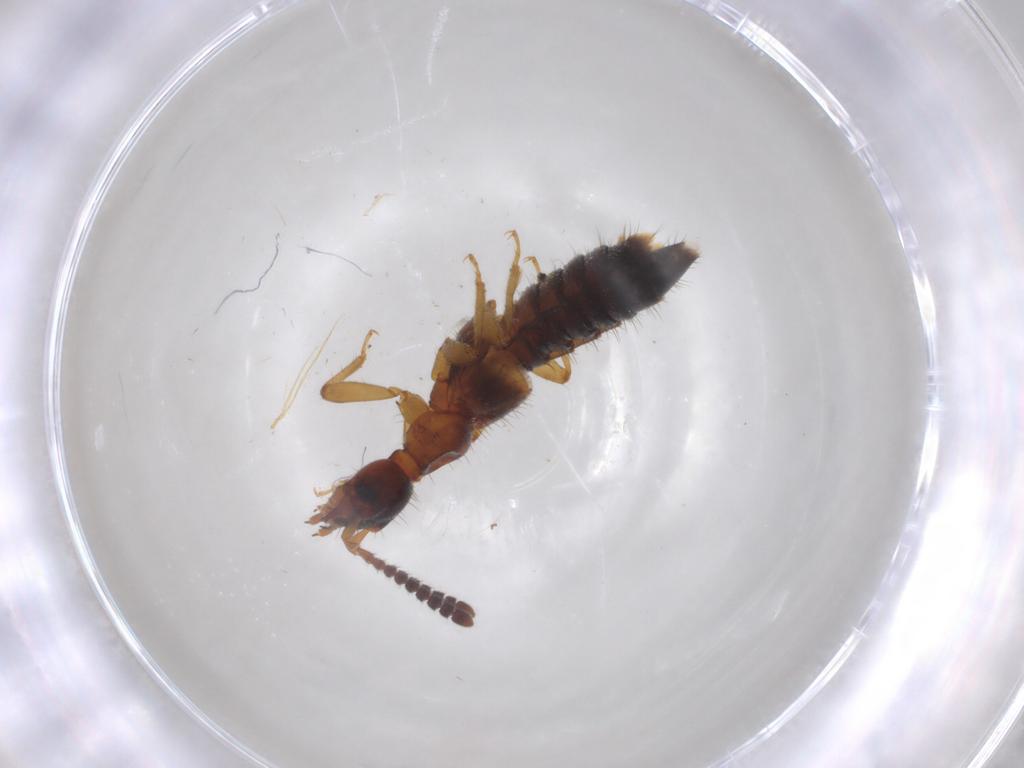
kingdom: Animalia
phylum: Arthropoda
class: Insecta
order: Coleoptera
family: Staphylinidae
